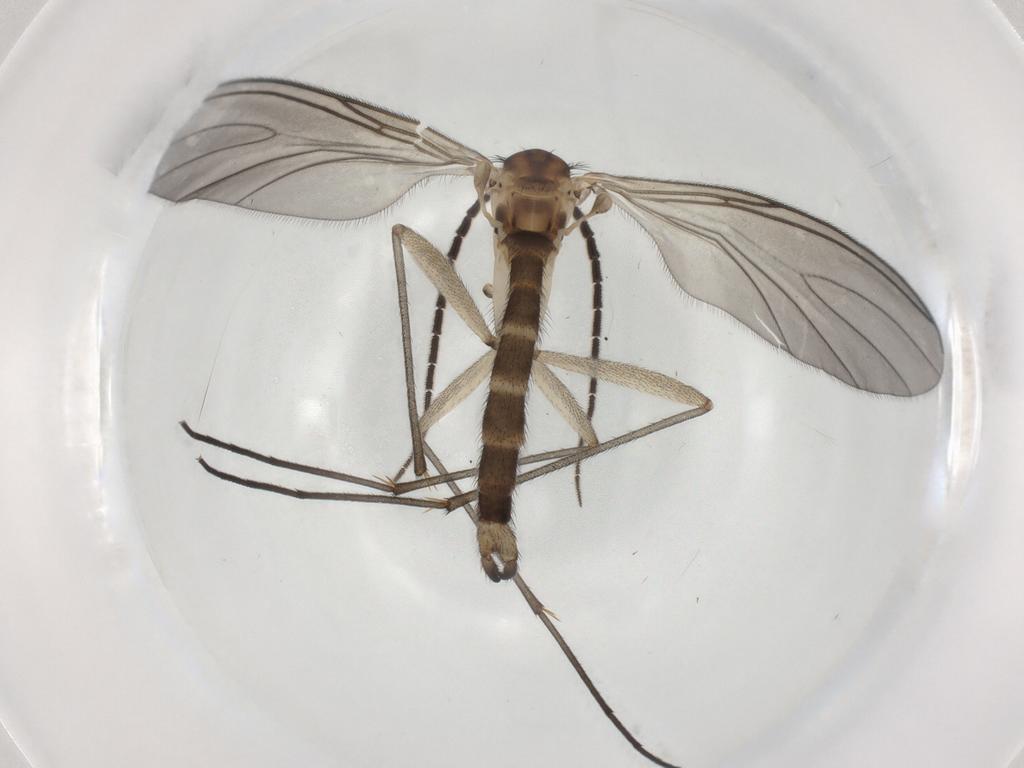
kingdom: Animalia
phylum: Arthropoda
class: Insecta
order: Diptera
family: Sciaridae
